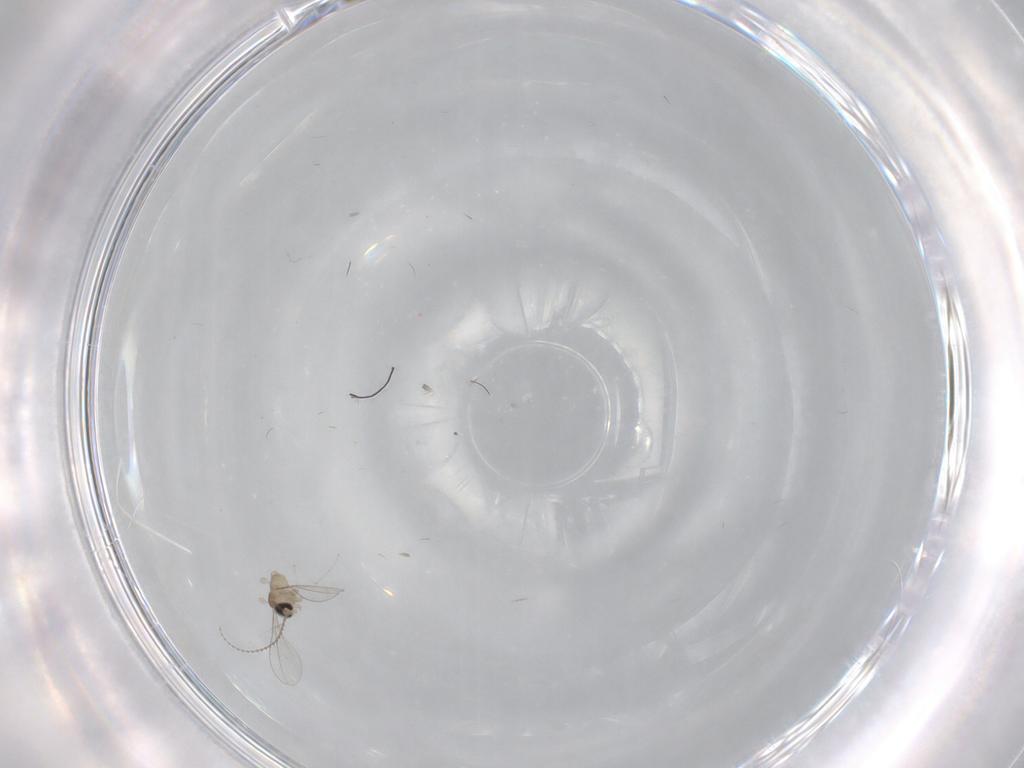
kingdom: Animalia
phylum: Arthropoda
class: Insecta
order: Diptera
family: Cecidomyiidae
